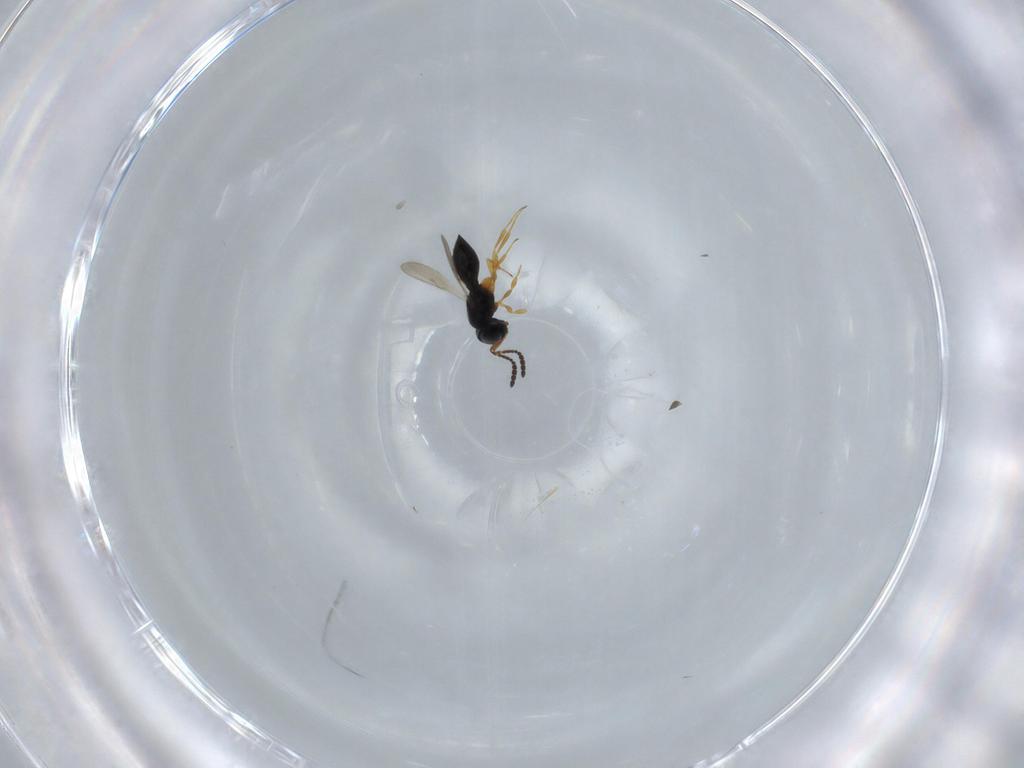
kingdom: Animalia
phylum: Arthropoda
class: Insecta
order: Hymenoptera
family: Scelionidae
